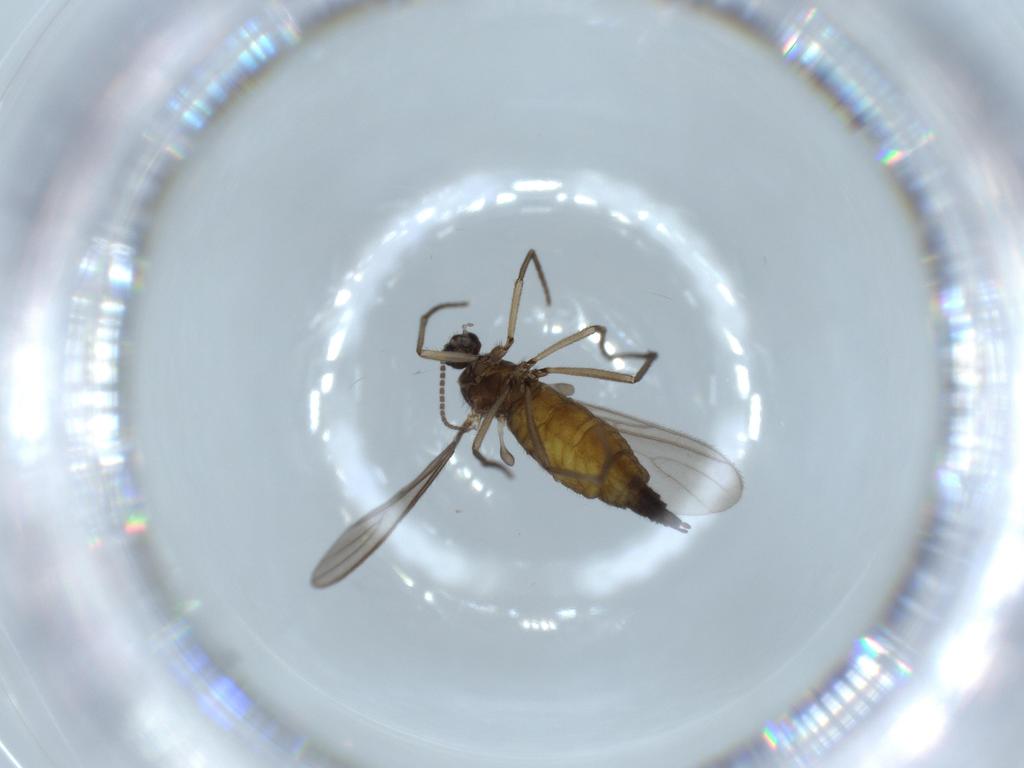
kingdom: Animalia
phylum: Arthropoda
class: Insecta
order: Diptera
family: Sciaridae
